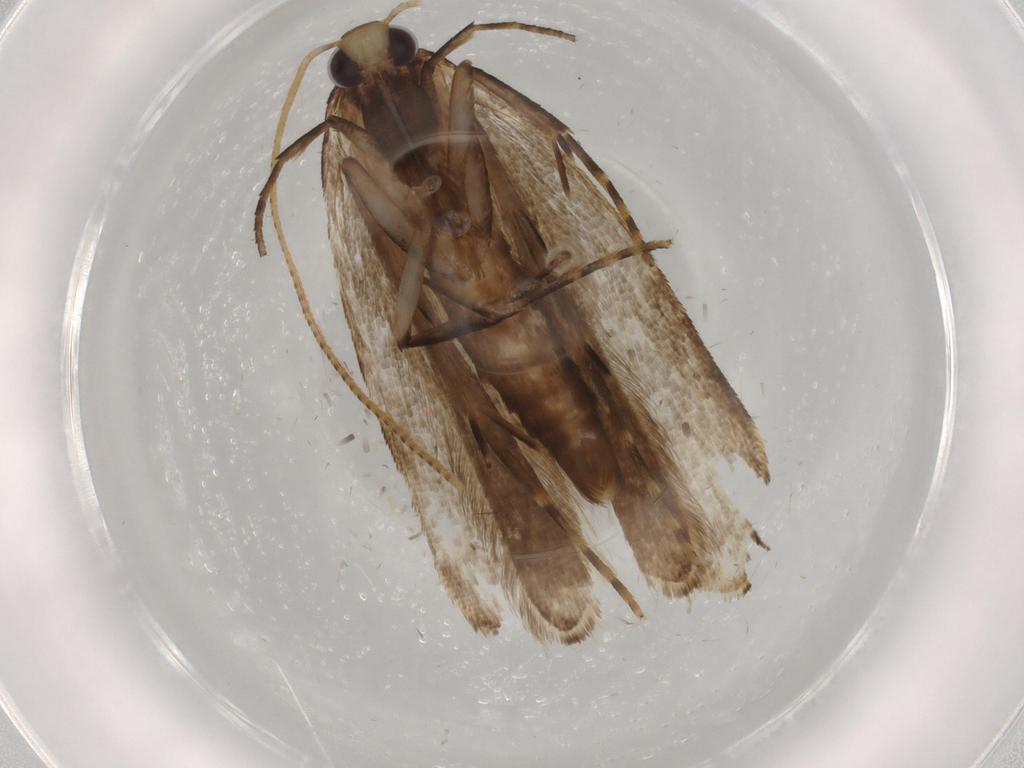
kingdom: Animalia
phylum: Arthropoda
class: Insecta
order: Lepidoptera
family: Gelechiidae
